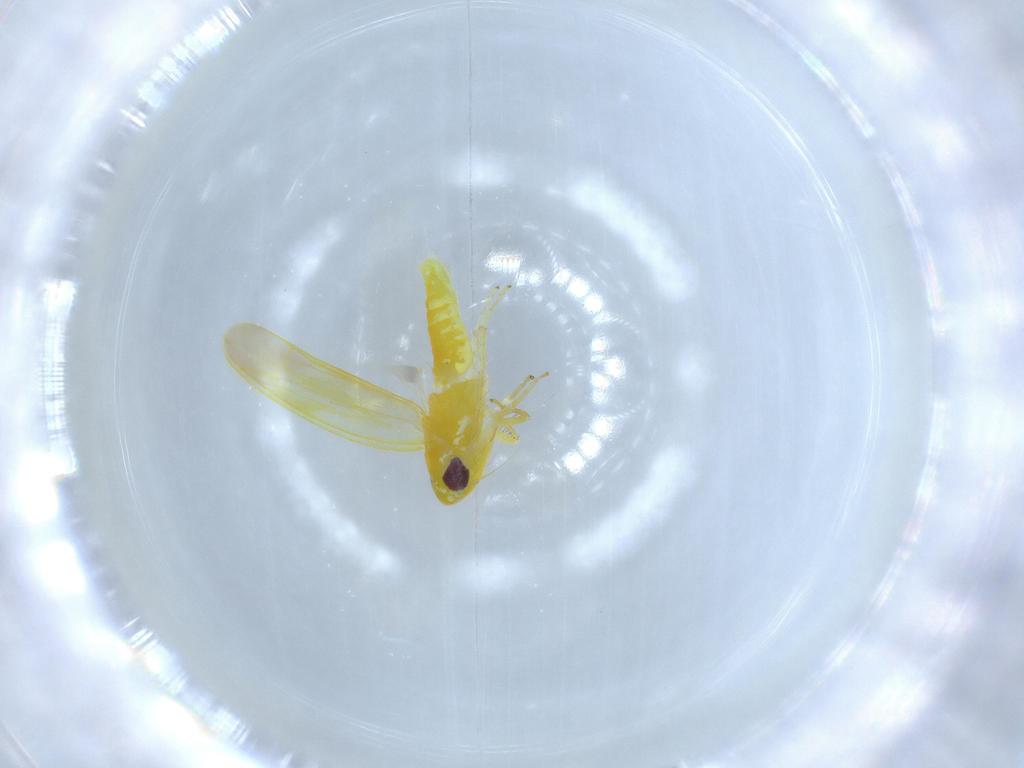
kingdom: Animalia
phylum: Arthropoda
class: Insecta
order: Hemiptera
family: Cicadellidae
